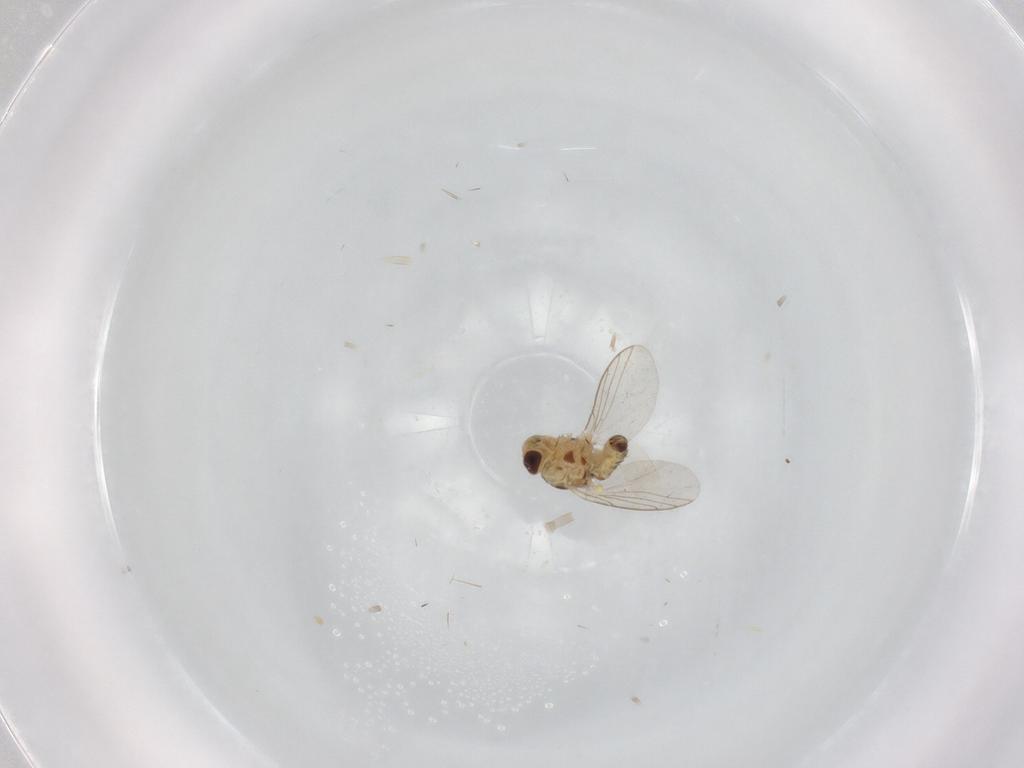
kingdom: Animalia
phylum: Arthropoda
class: Insecta
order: Diptera
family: Agromyzidae
